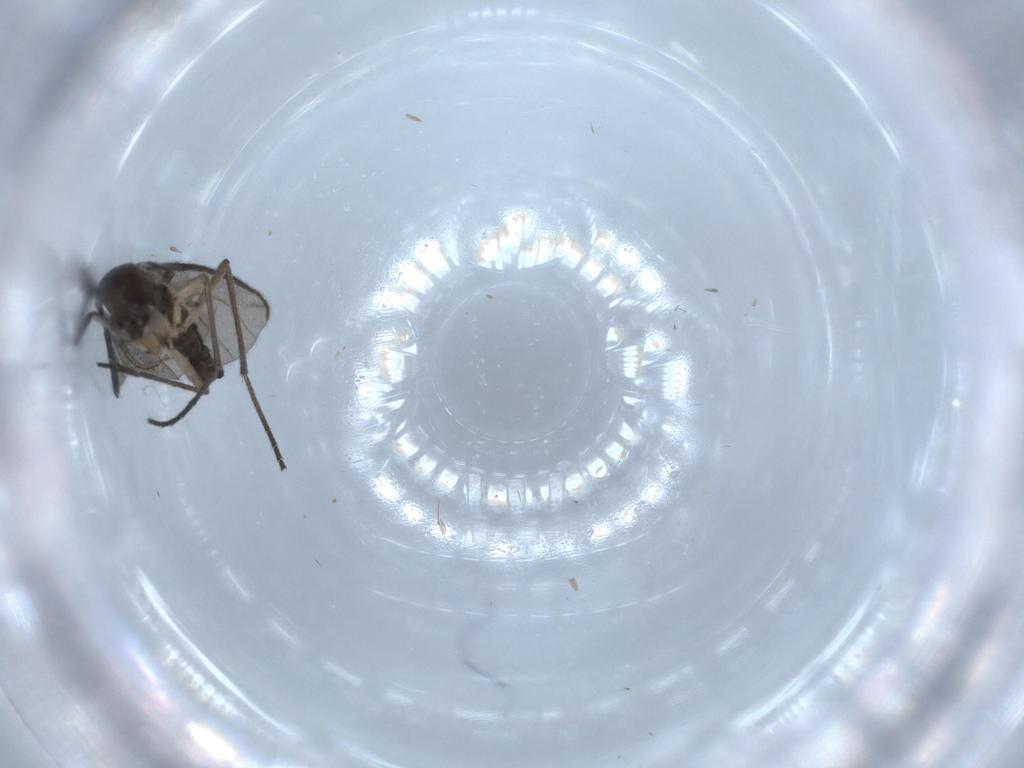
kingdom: Animalia
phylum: Arthropoda
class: Insecta
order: Diptera
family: Sciaridae
